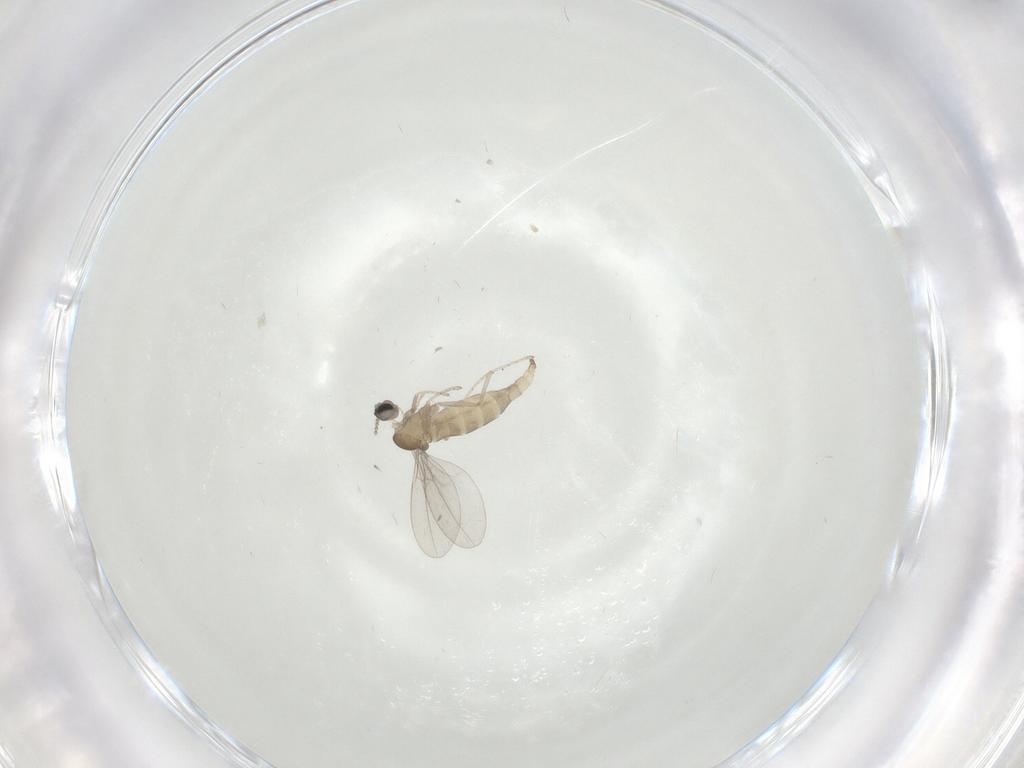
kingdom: Animalia
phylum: Arthropoda
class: Insecta
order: Diptera
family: Cecidomyiidae
